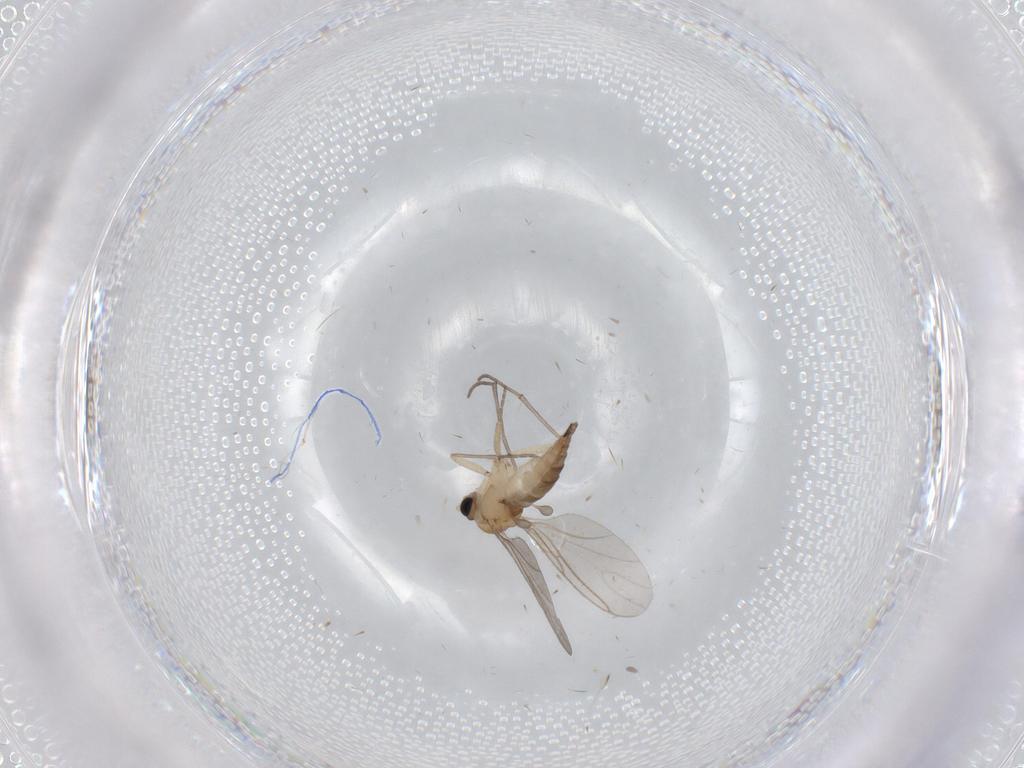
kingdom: Animalia
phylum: Arthropoda
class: Insecta
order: Diptera
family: Sciaridae
